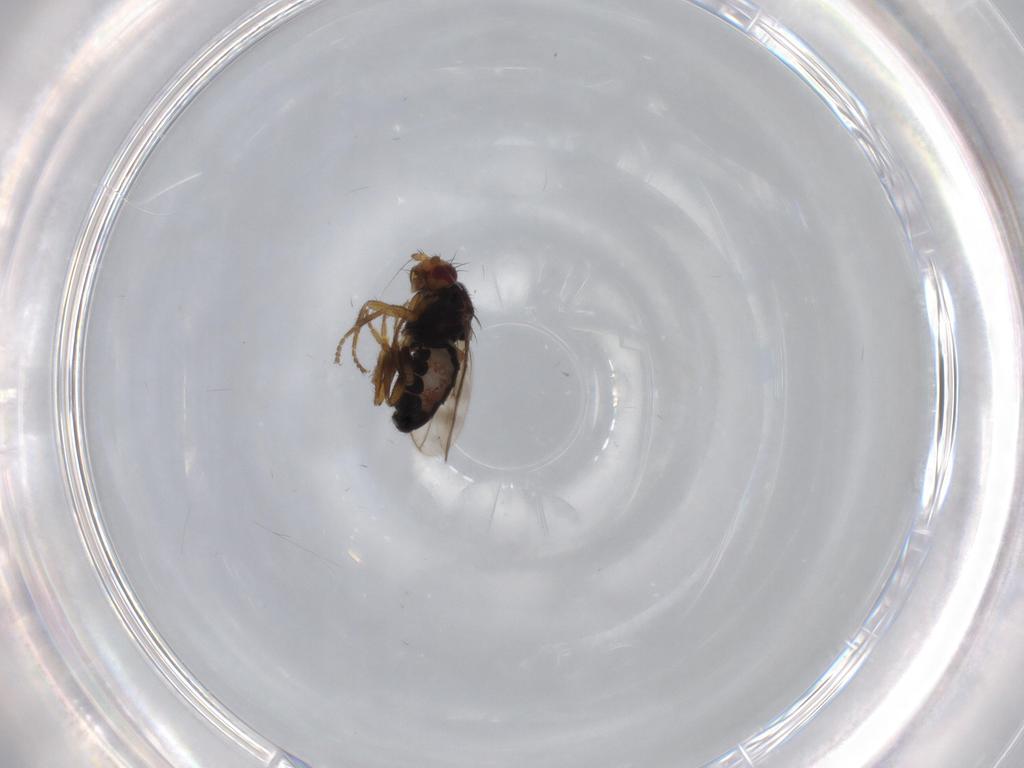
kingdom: Animalia
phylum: Arthropoda
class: Insecta
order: Diptera
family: Sphaeroceridae
